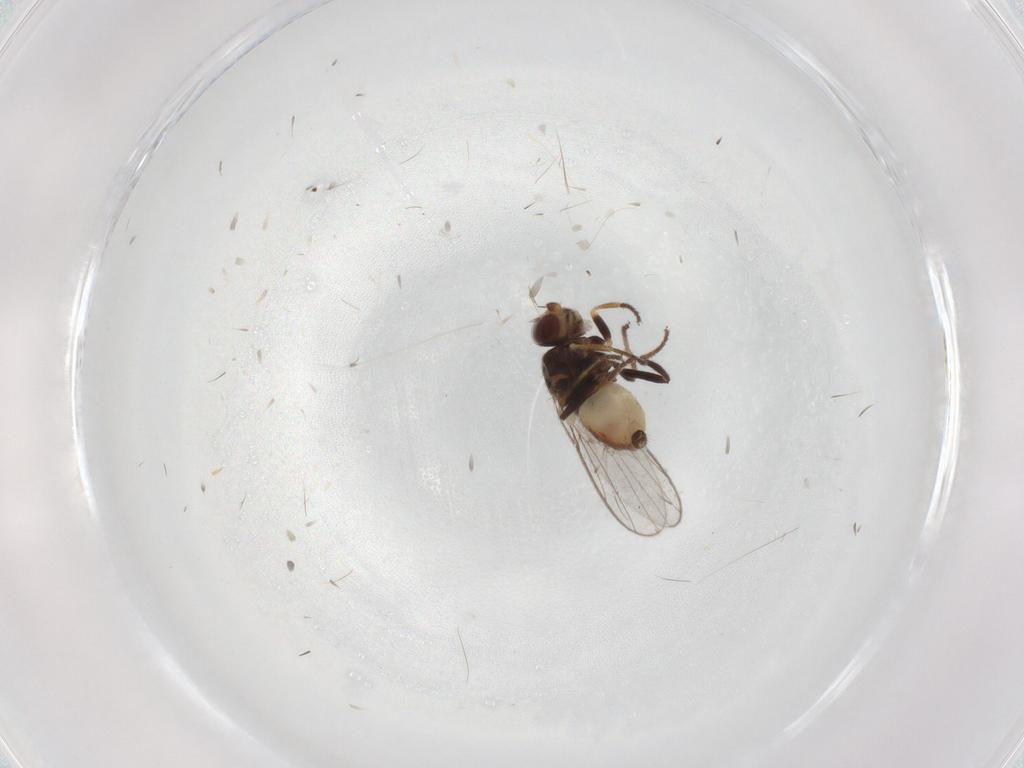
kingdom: Animalia
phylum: Arthropoda
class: Insecta
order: Diptera
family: Chloropidae
